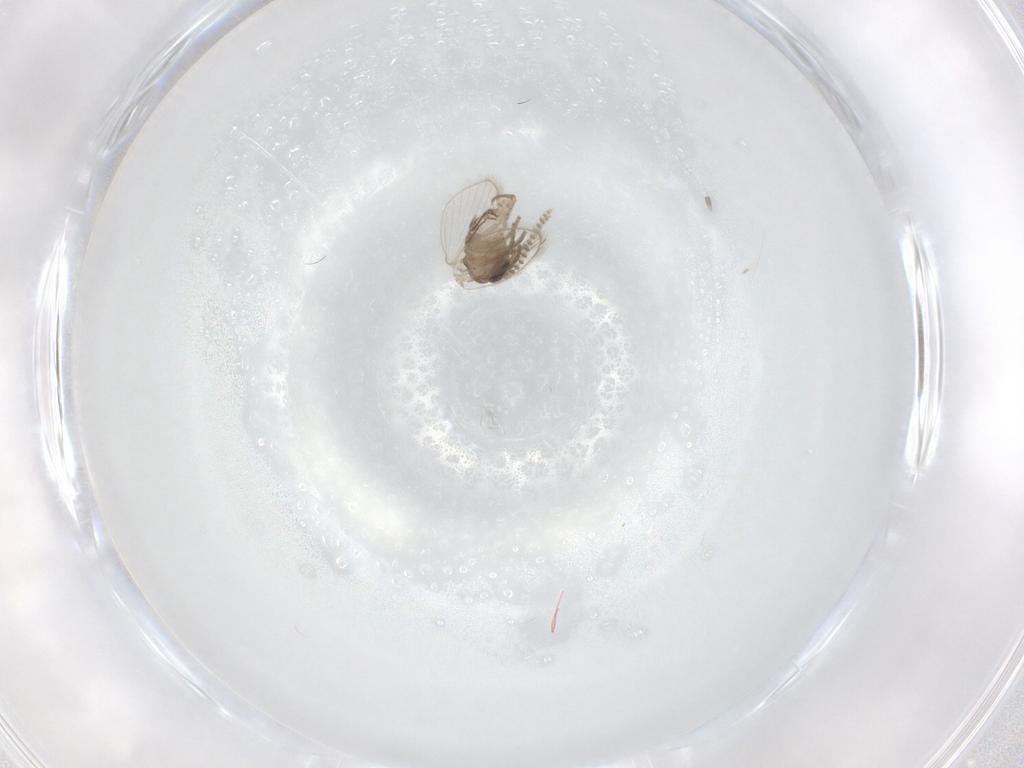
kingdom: Animalia
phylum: Arthropoda
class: Insecta
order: Diptera
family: Psychodidae
